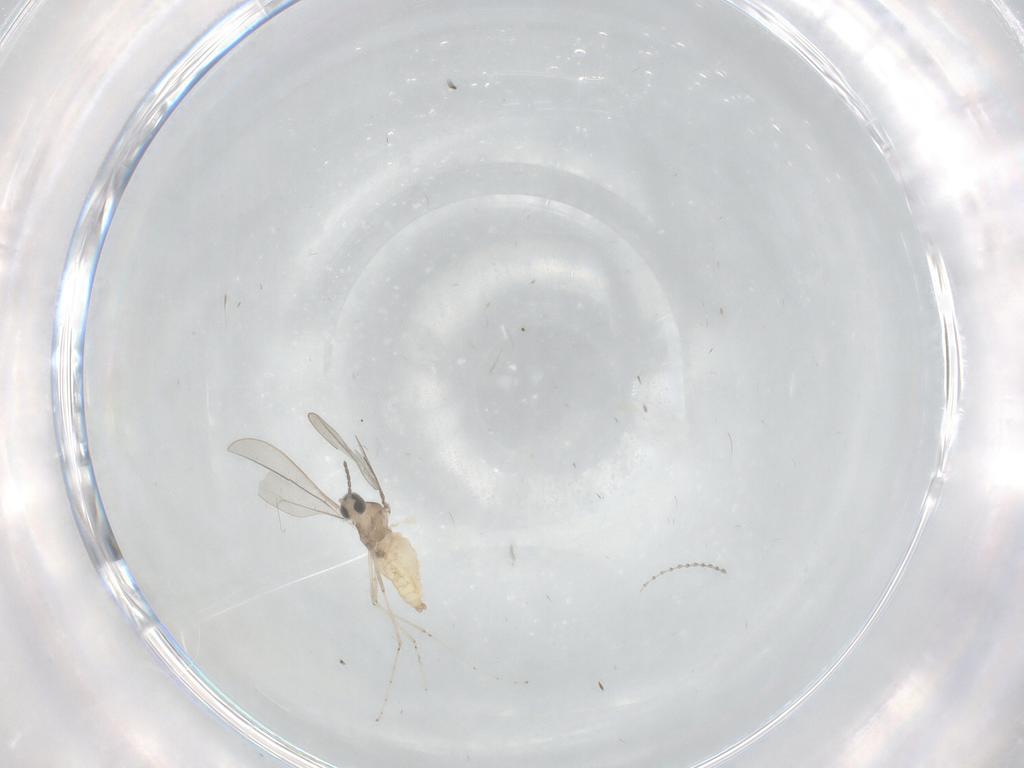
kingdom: Animalia
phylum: Arthropoda
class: Insecta
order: Diptera
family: Cecidomyiidae
